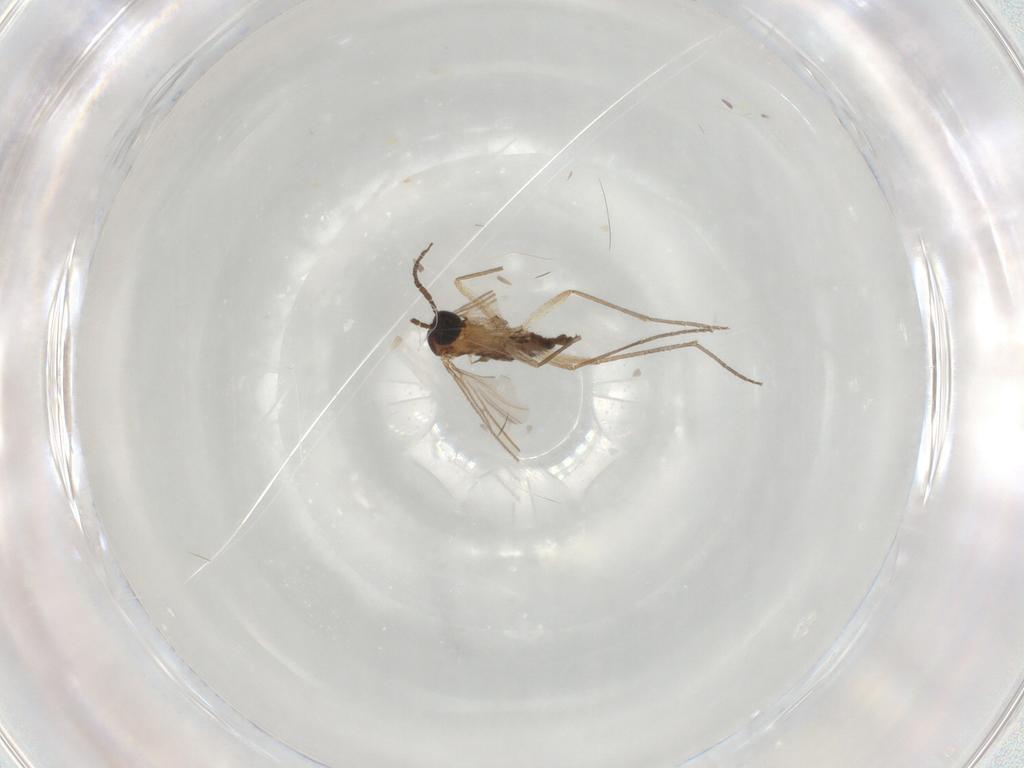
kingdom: Animalia
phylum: Arthropoda
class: Insecta
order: Diptera
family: Sciaridae
